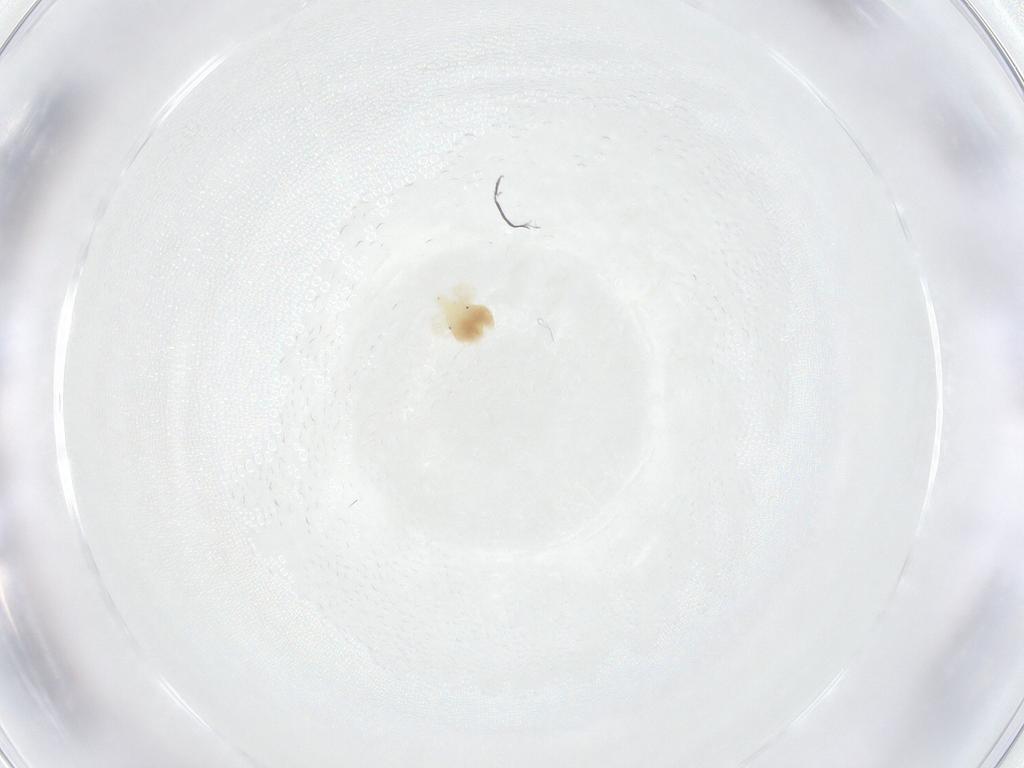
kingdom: Animalia
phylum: Arthropoda
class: Arachnida
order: Trombidiformes
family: Anystidae
